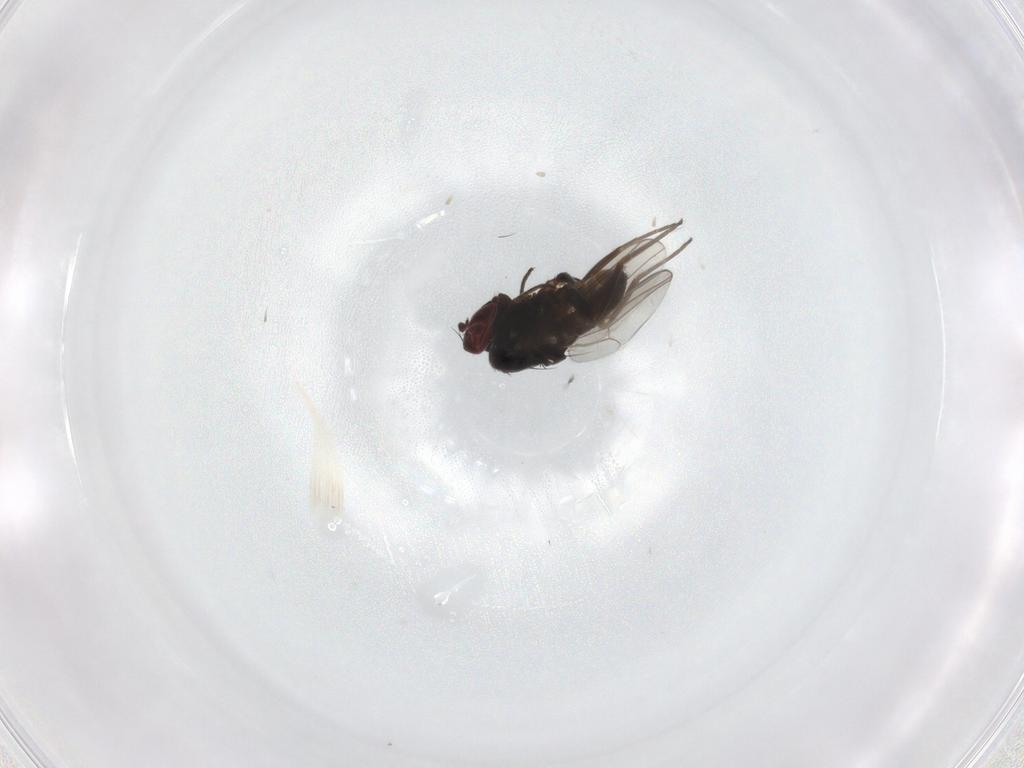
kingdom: Animalia
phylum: Arthropoda
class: Insecta
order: Diptera
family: Dolichopodidae
